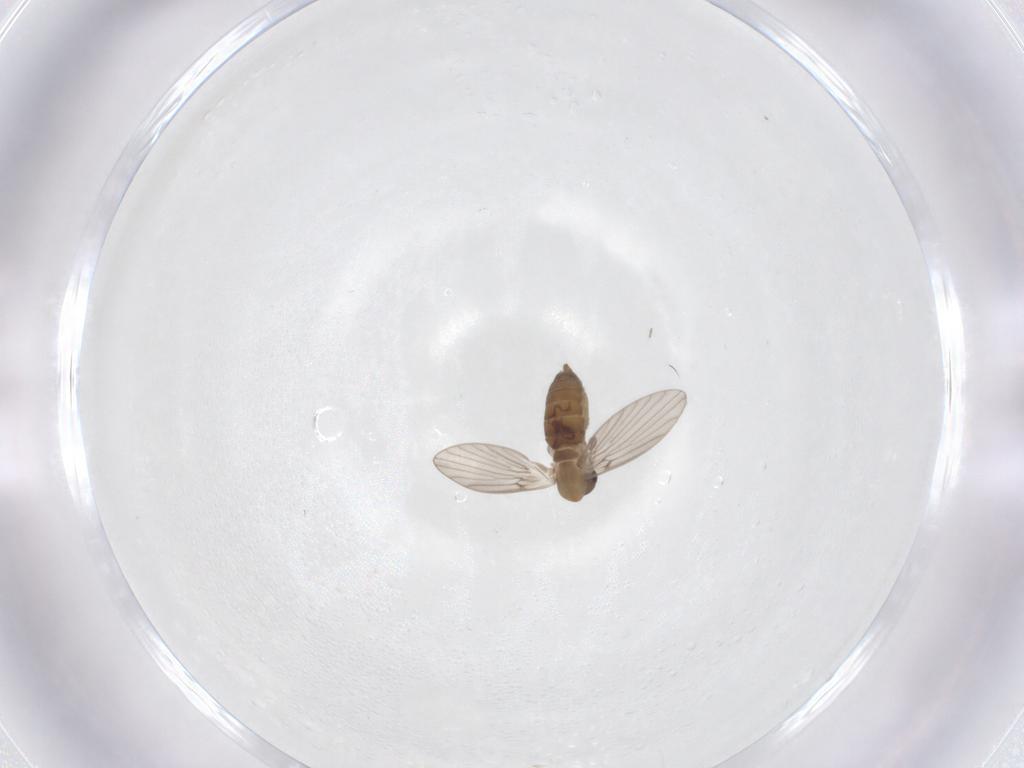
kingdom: Animalia
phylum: Arthropoda
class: Insecta
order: Diptera
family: Psychodidae
